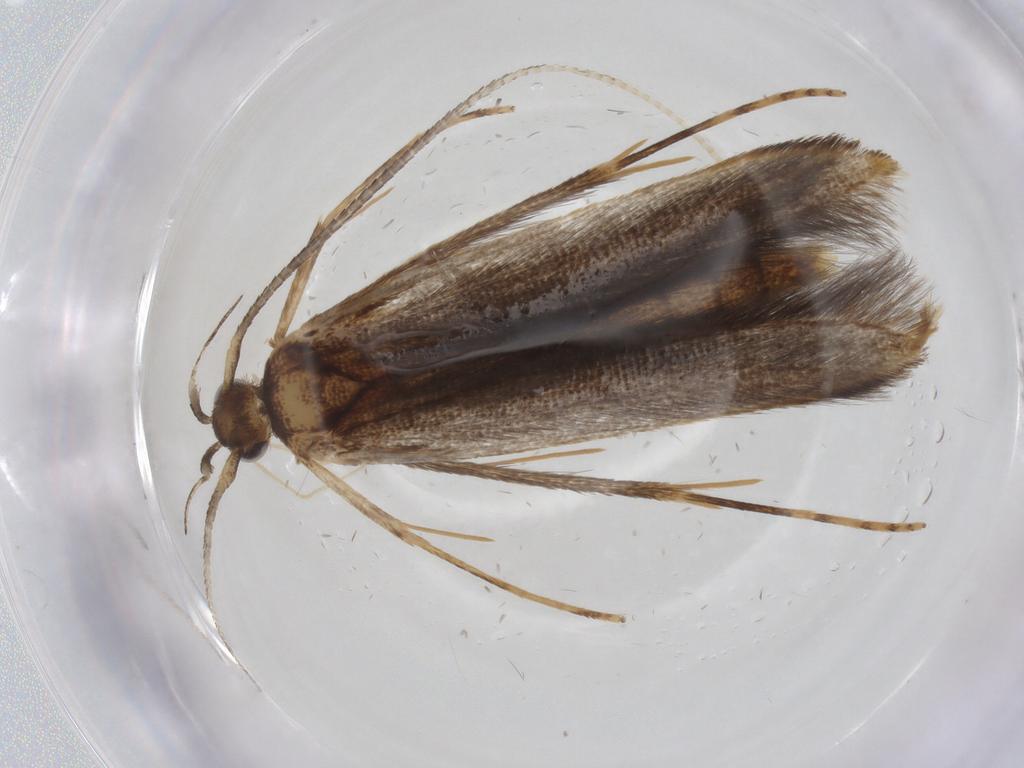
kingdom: Animalia
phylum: Arthropoda
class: Insecta
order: Lepidoptera
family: Pterolonchidae
